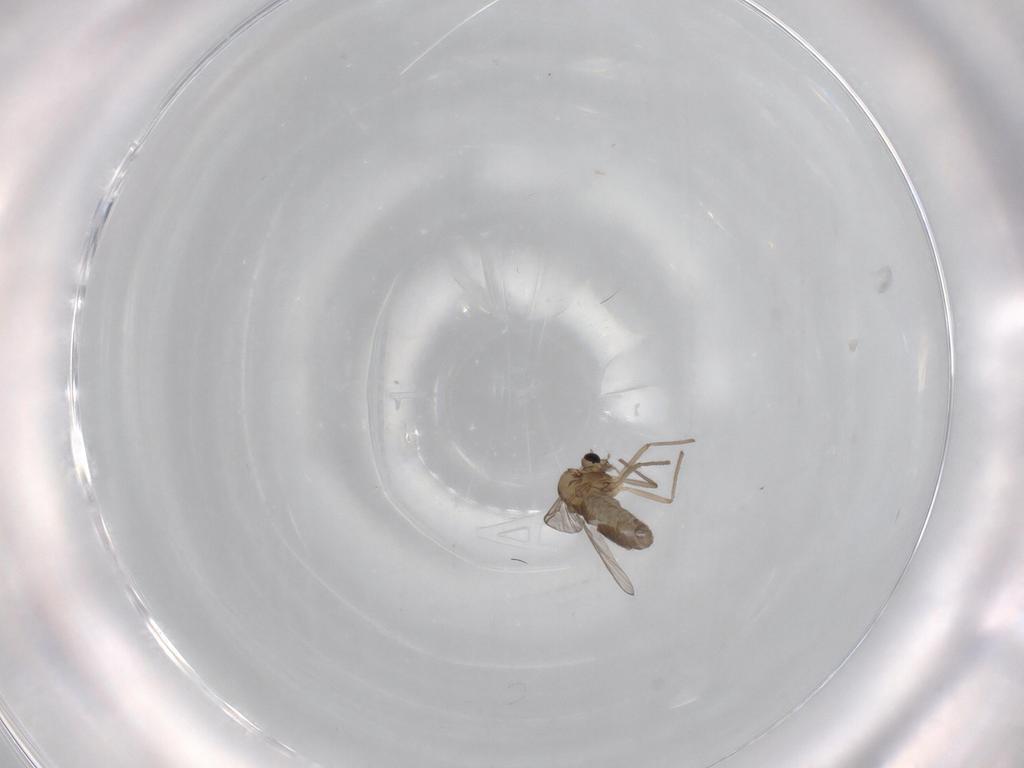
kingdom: Animalia
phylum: Arthropoda
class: Insecta
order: Diptera
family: Chironomidae
